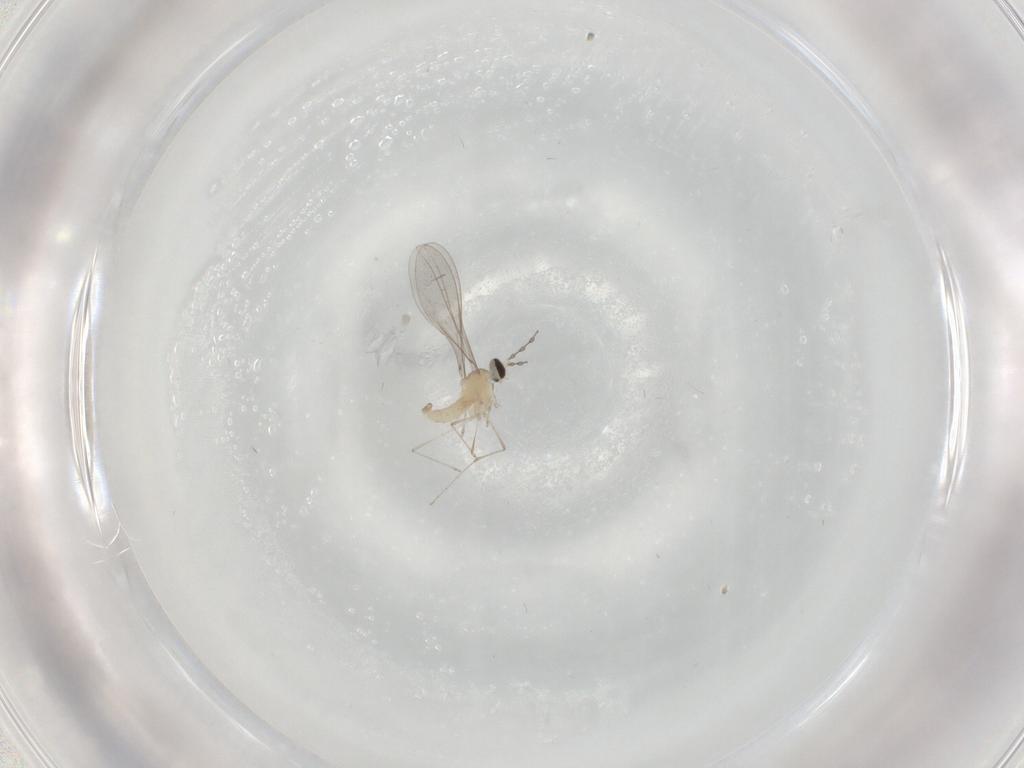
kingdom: Animalia
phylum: Arthropoda
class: Insecta
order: Diptera
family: Cecidomyiidae
